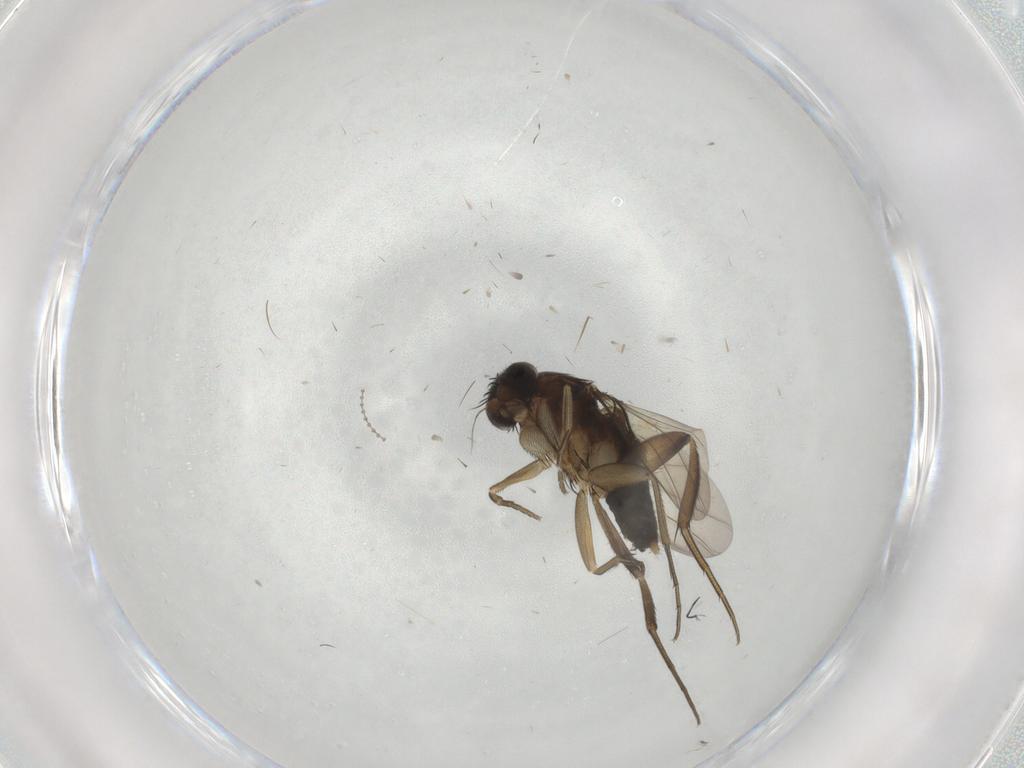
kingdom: Animalia
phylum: Arthropoda
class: Insecta
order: Diptera
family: Phoridae
